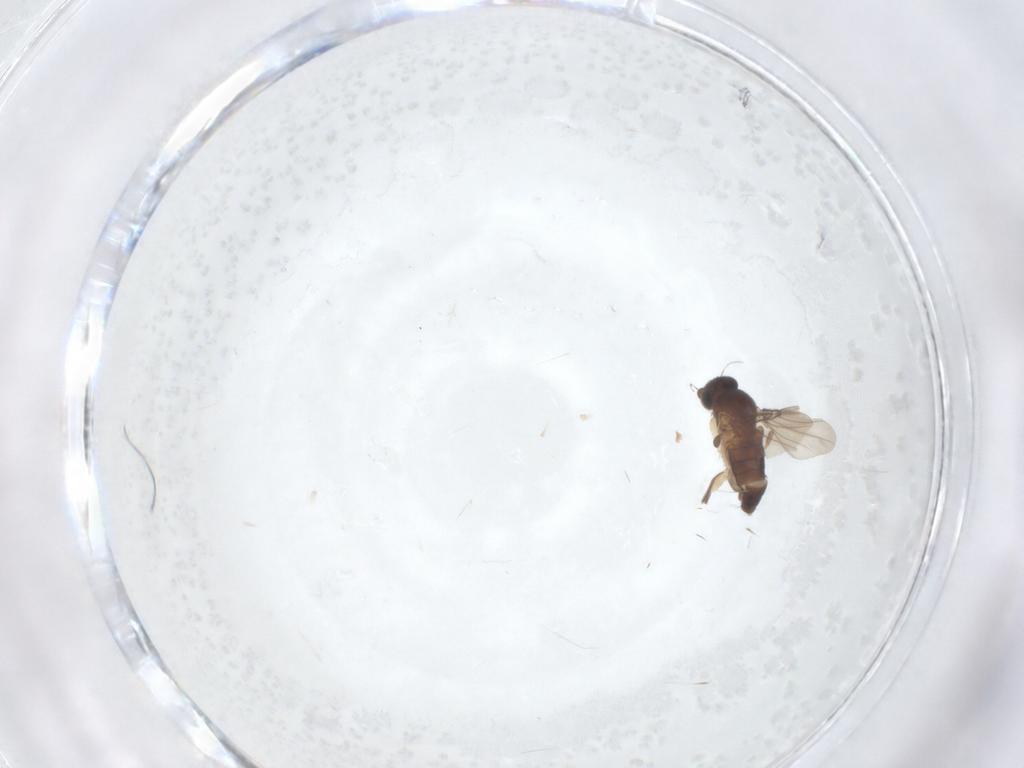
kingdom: Animalia
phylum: Arthropoda
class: Insecta
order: Diptera
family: Phoridae
